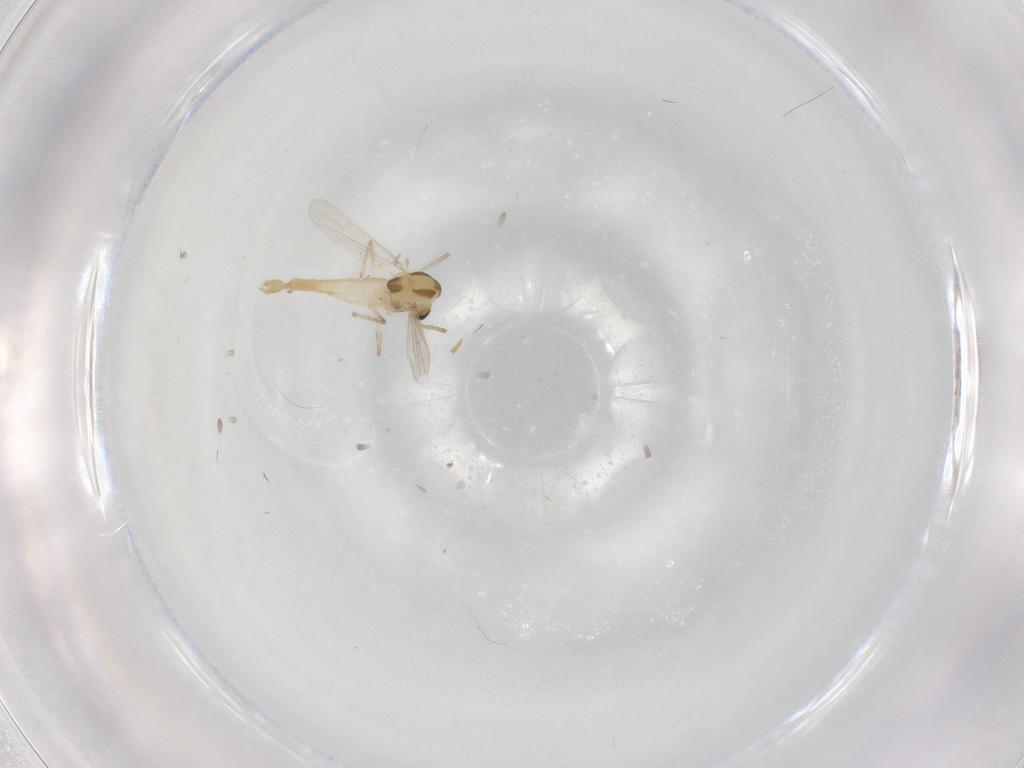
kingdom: Animalia
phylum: Arthropoda
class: Insecta
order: Diptera
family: Chironomidae
